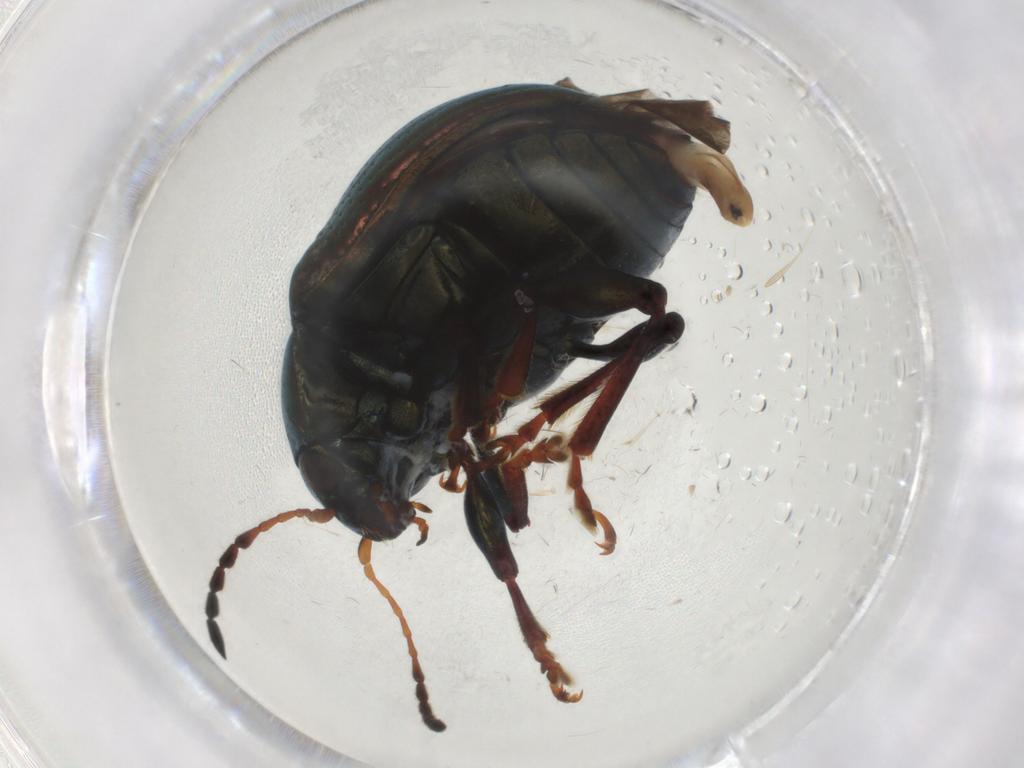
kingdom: Animalia
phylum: Arthropoda
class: Insecta
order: Coleoptera
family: Chrysomelidae
